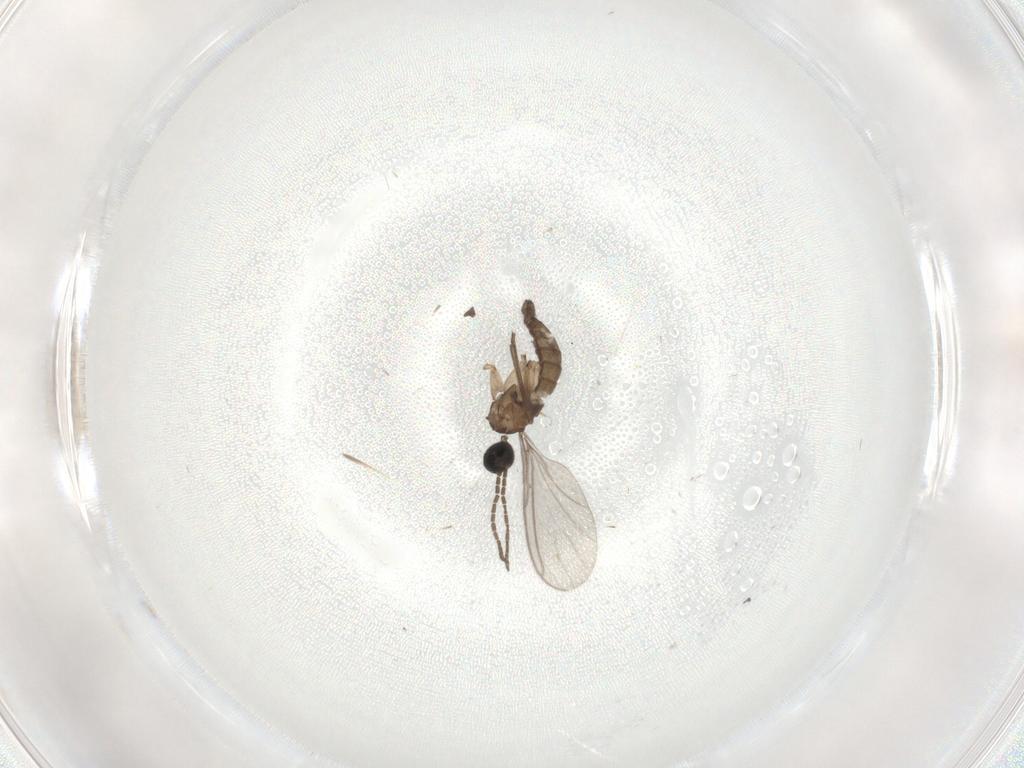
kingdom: Animalia
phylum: Arthropoda
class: Insecta
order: Diptera
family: Sciaridae
